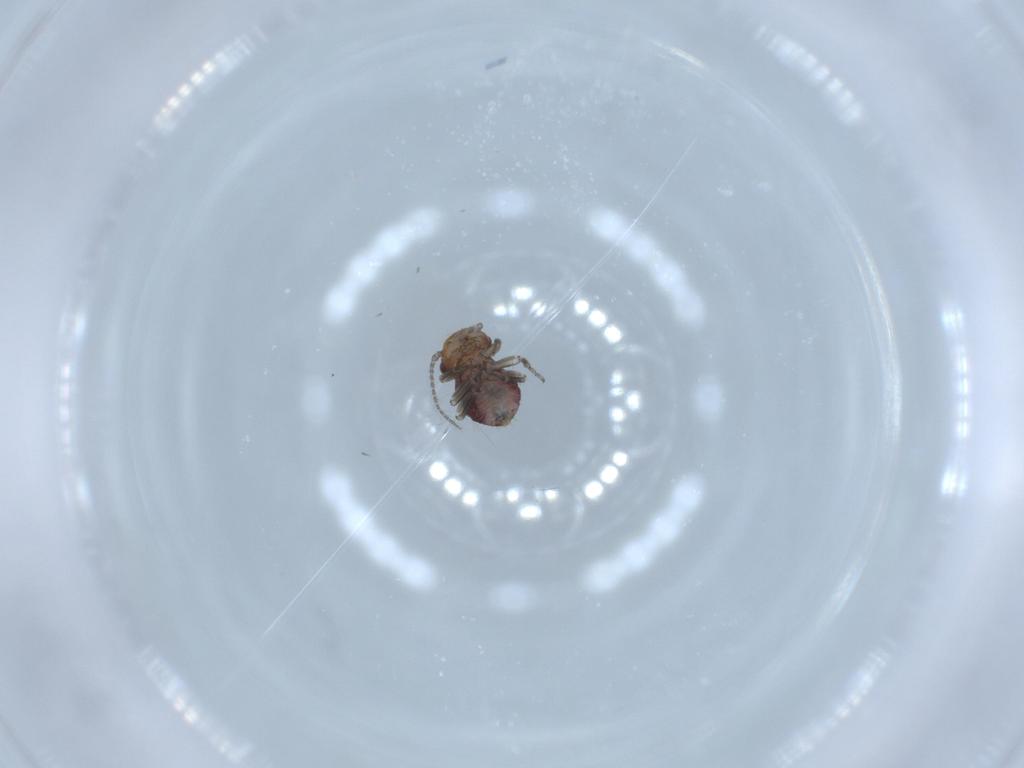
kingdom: Animalia
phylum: Arthropoda
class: Insecta
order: Psocodea
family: Psocidae
